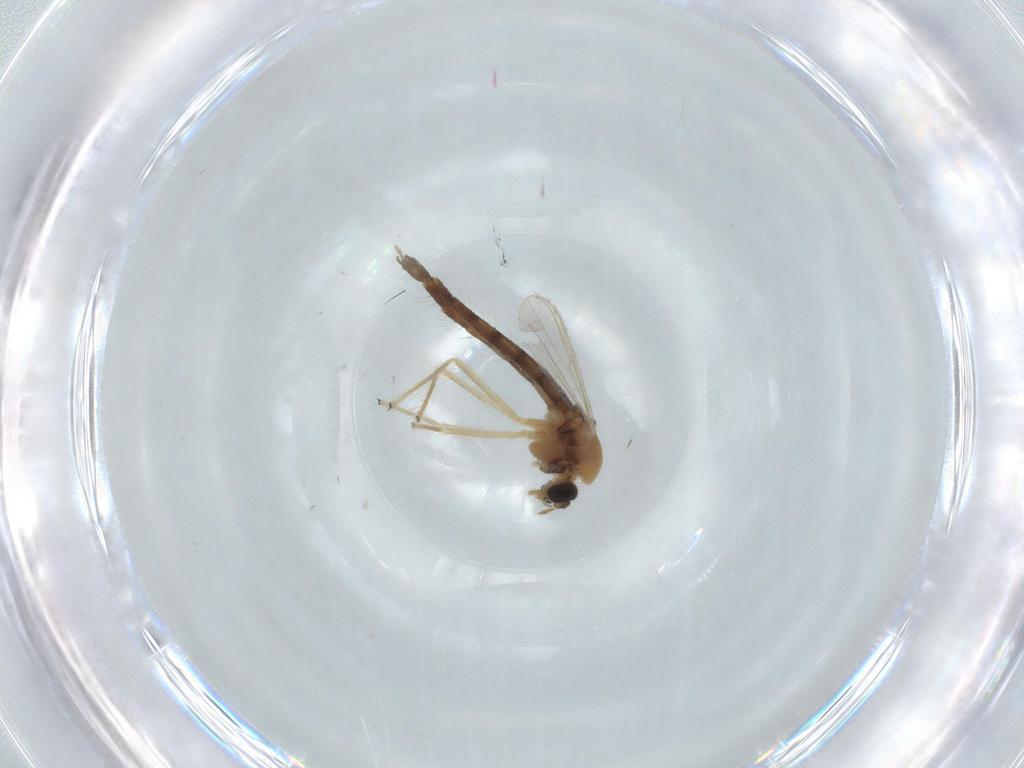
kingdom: Animalia
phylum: Arthropoda
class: Insecta
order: Diptera
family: Chironomidae
